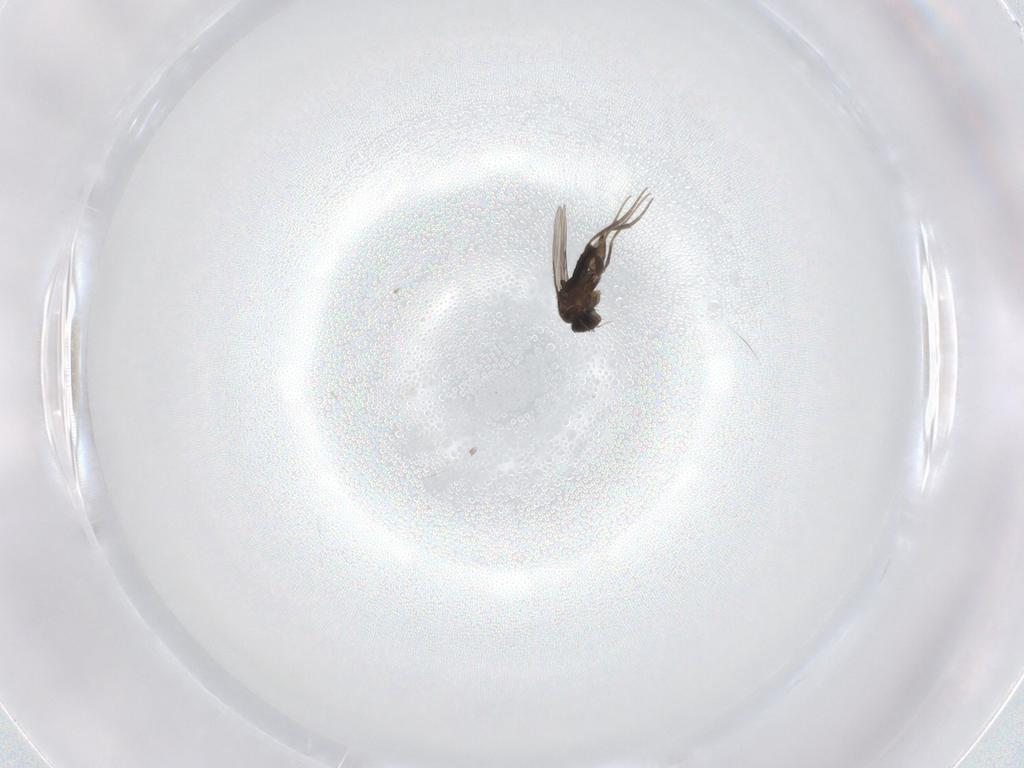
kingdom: Animalia
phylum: Arthropoda
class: Insecta
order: Diptera
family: Phoridae
